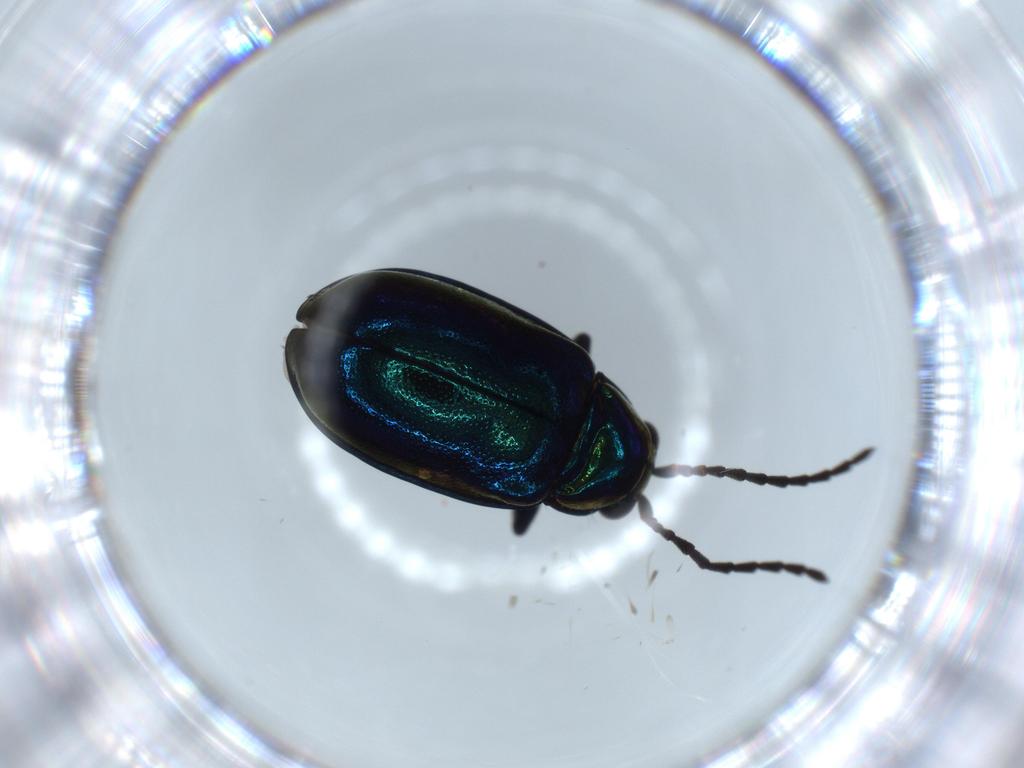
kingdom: Animalia
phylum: Arthropoda
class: Insecta
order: Coleoptera
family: Chrysomelidae
